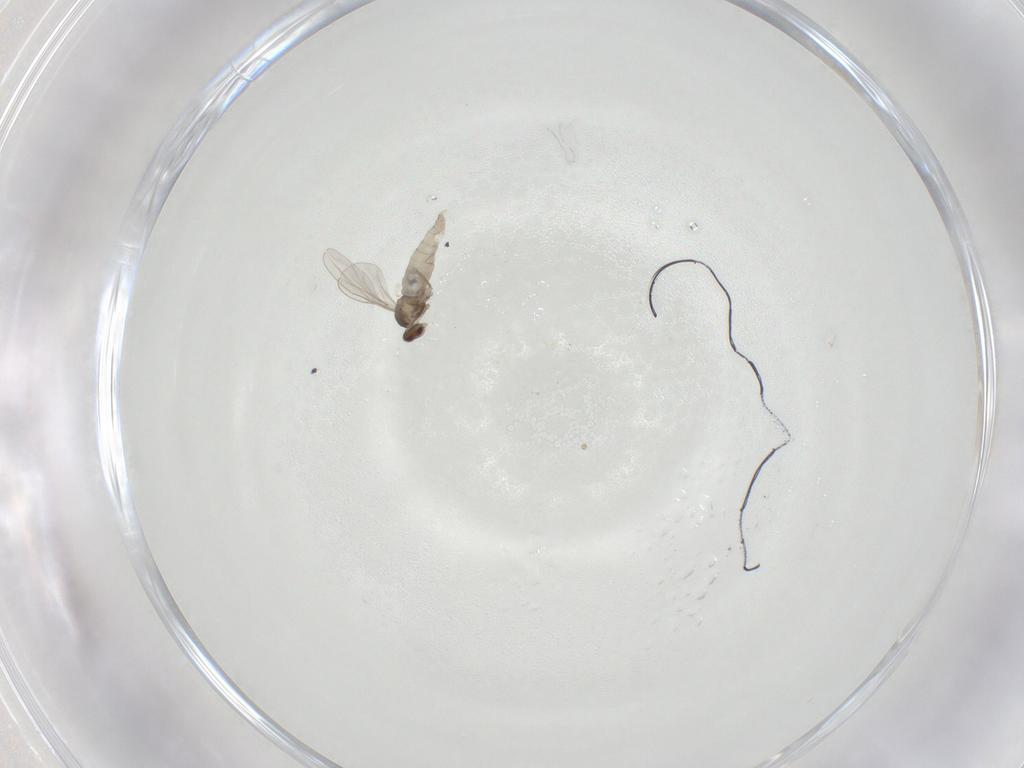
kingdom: Animalia
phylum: Arthropoda
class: Insecta
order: Diptera
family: Cecidomyiidae
